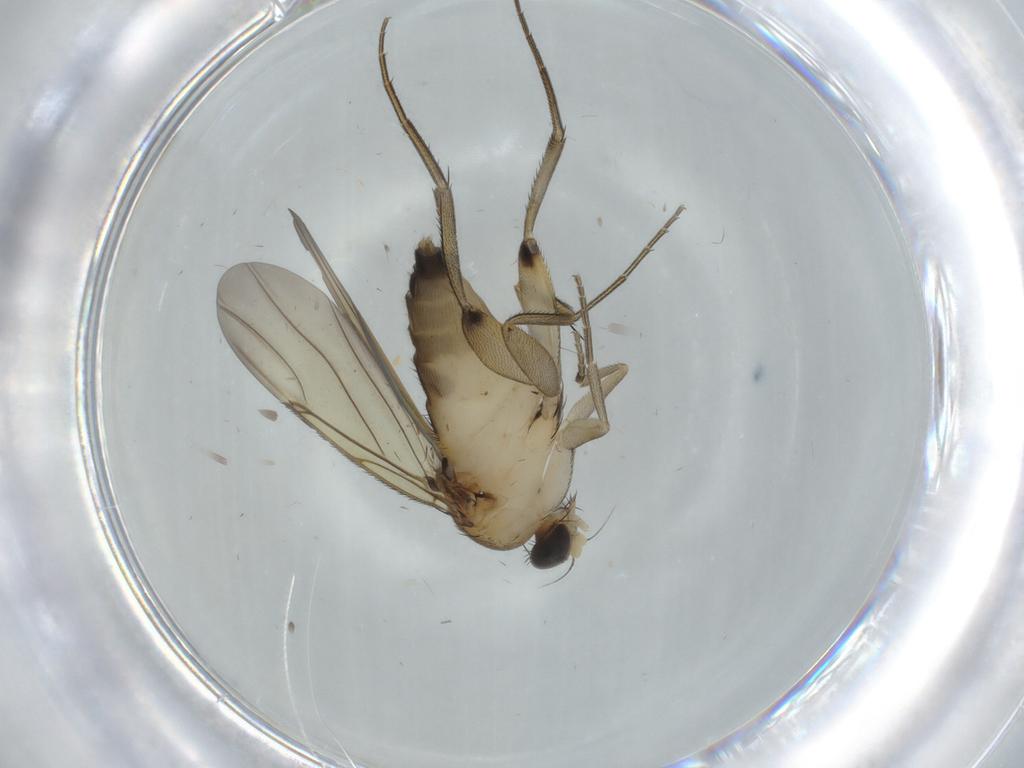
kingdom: Animalia
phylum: Arthropoda
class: Insecta
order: Diptera
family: Phoridae
